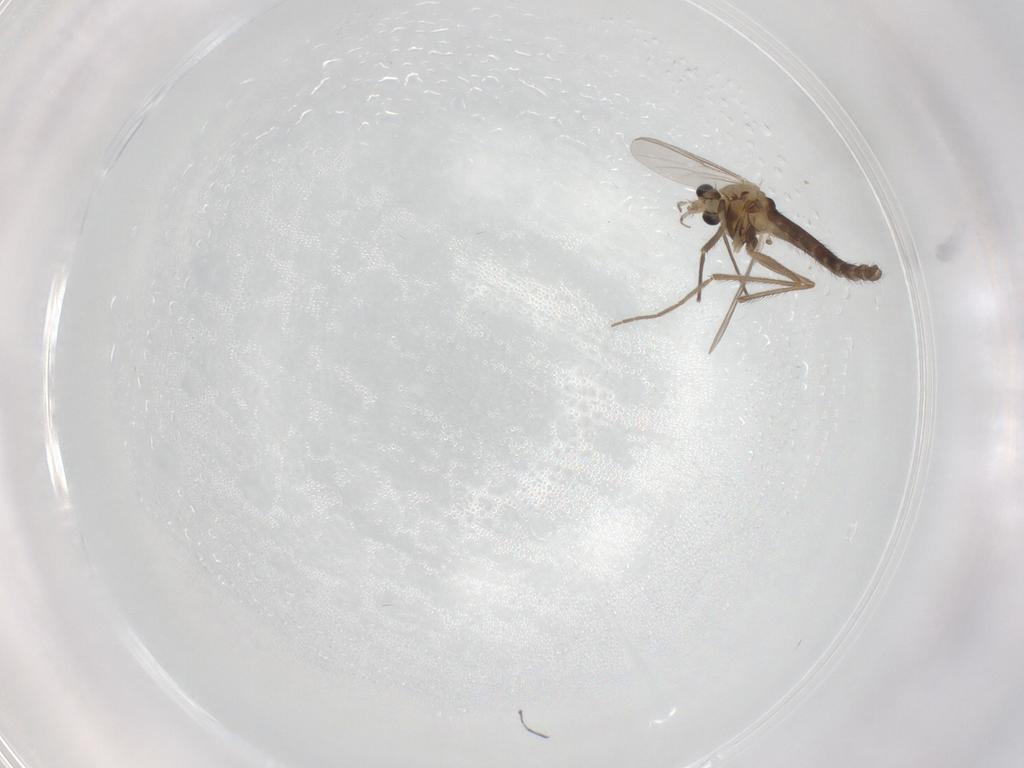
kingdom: Animalia
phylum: Arthropoda
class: Insecta
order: Diptera
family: Chironomidae
